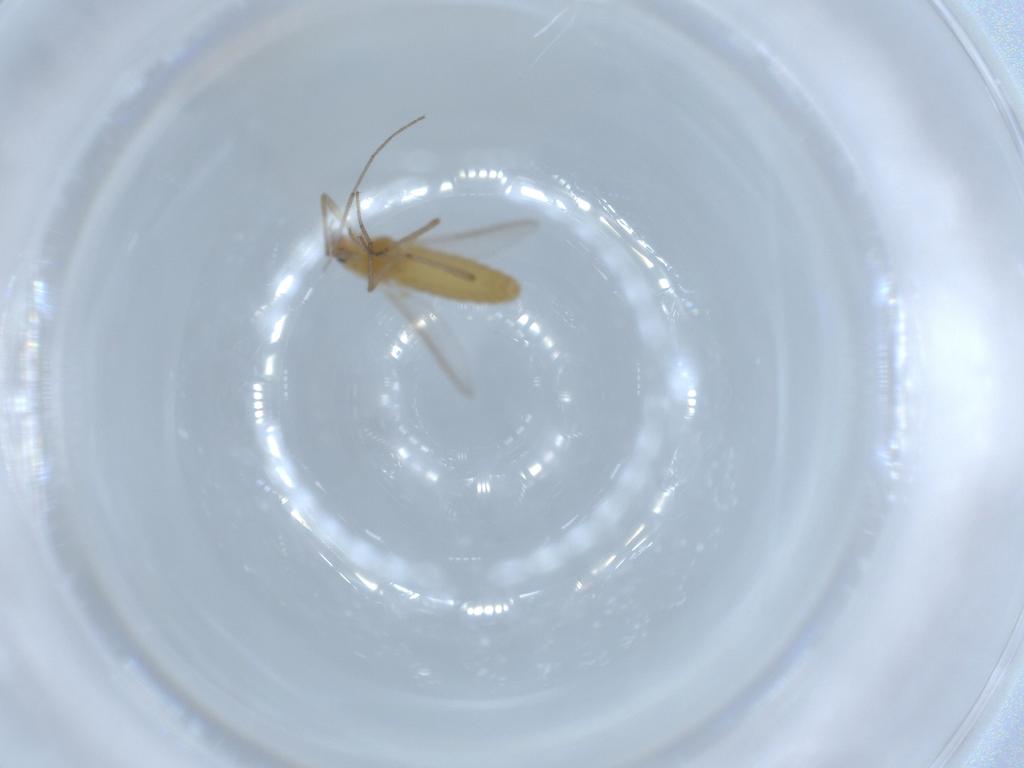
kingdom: Animalia
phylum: Arthropoda
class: Insecta
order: Diptera
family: Chironomidae
